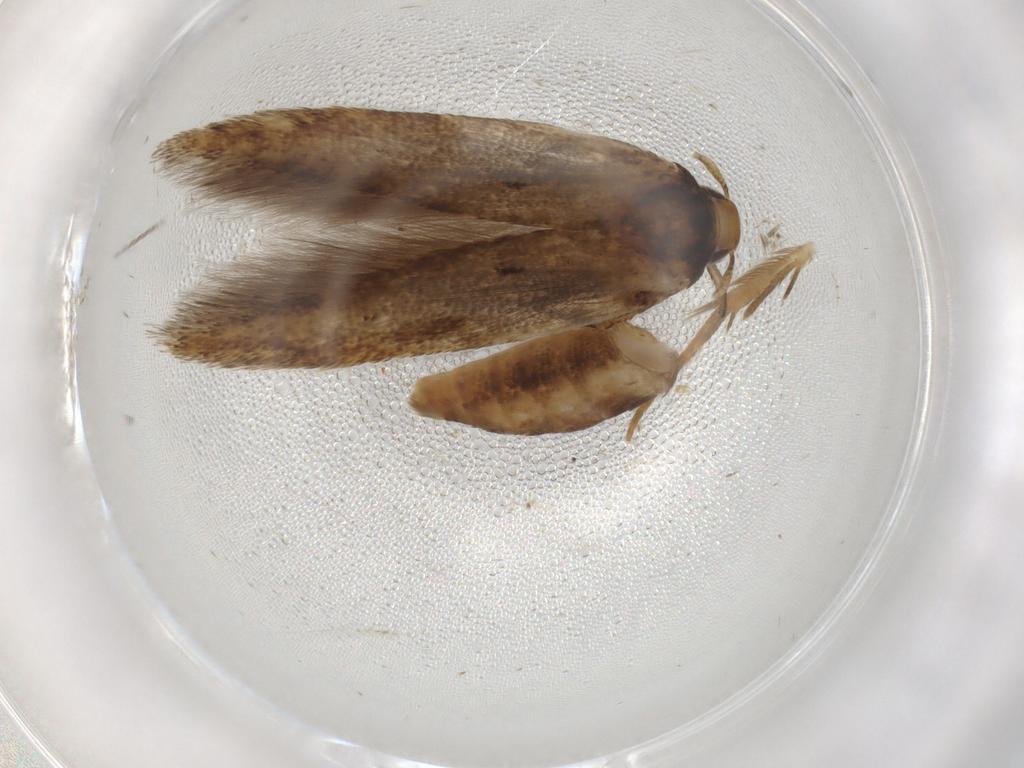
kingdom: Animalia
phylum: Arthropoda
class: Insecta
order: Lepidoptera
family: Cosmopterigidae
